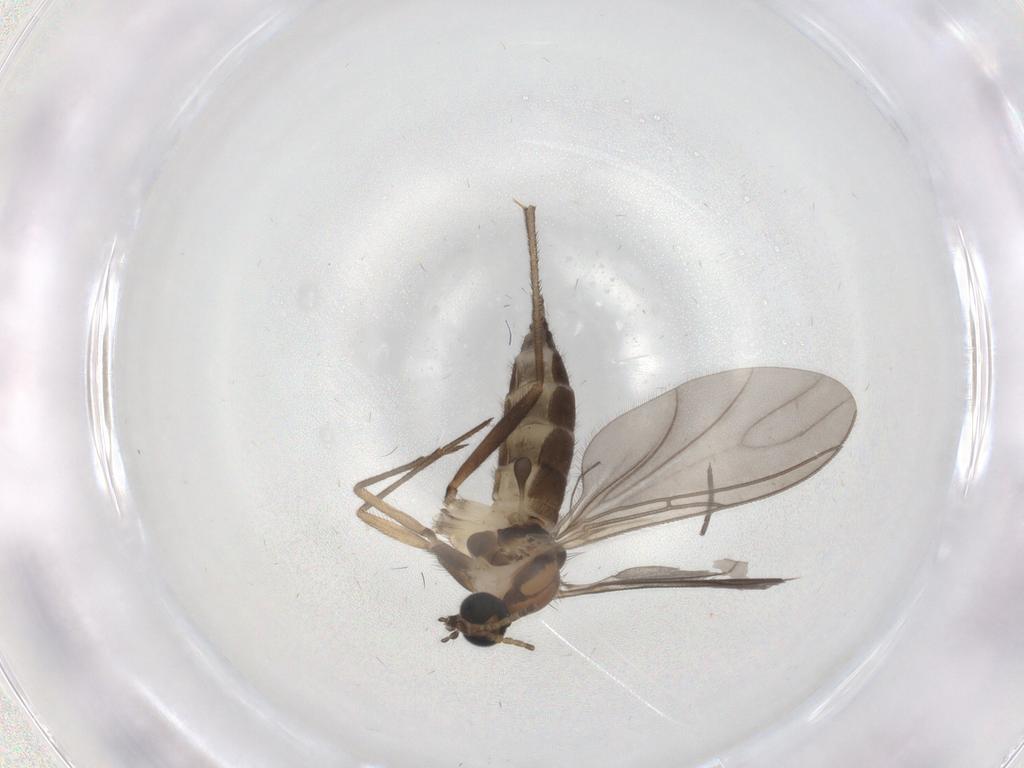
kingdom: Animalia
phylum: Arthropoda
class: Insecta
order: Diptera
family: Sciaridae
